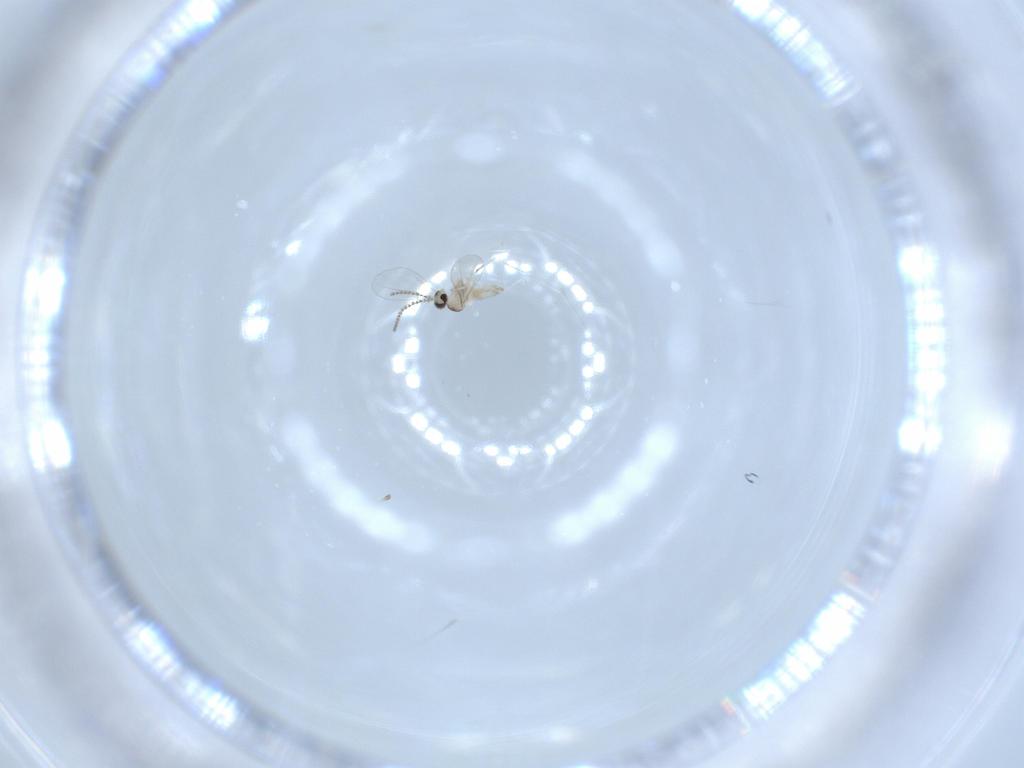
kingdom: Animalia
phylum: Arthropoda
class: Insecta
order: Diptera
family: Cecidomyiidae
